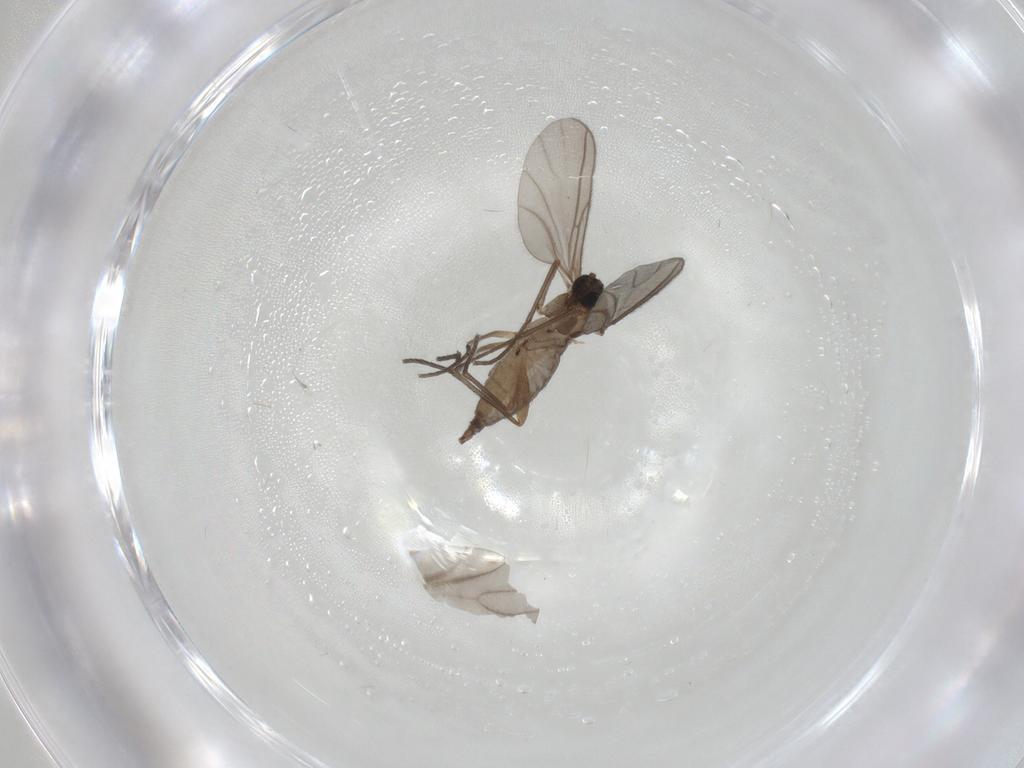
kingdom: Animalia
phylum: Arthropoda
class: Insecta
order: Diptera
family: Sciaridae
